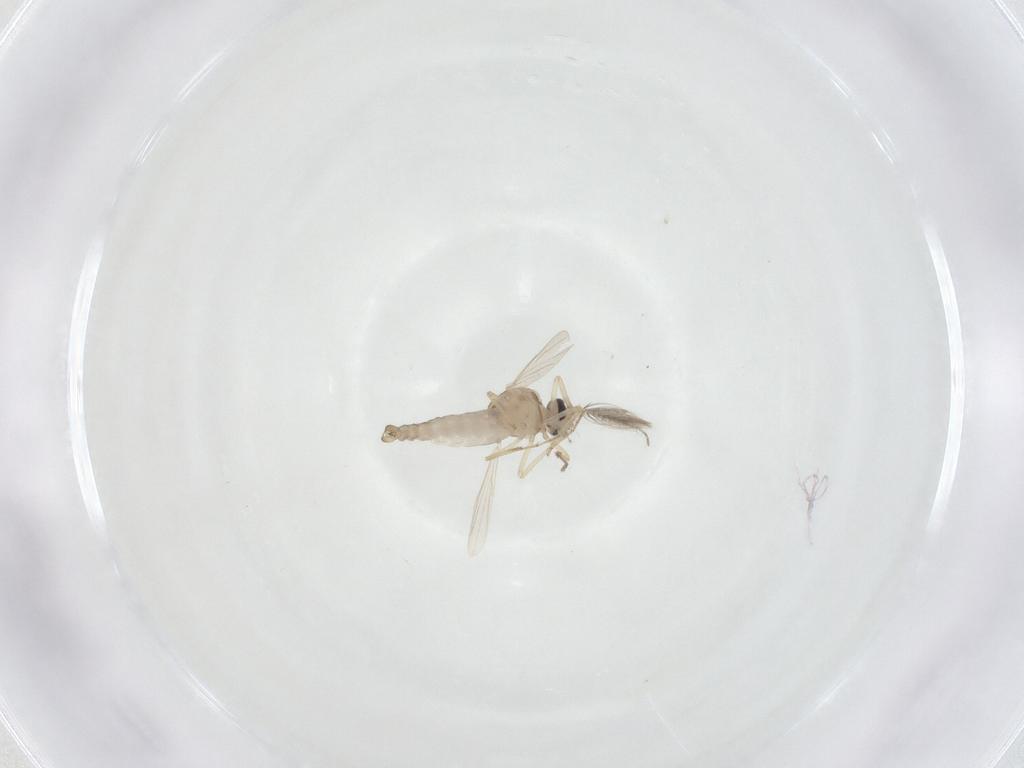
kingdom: Animalia
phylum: Arthropoda
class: Insecta
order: Diptera
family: Ceratopogonidae
